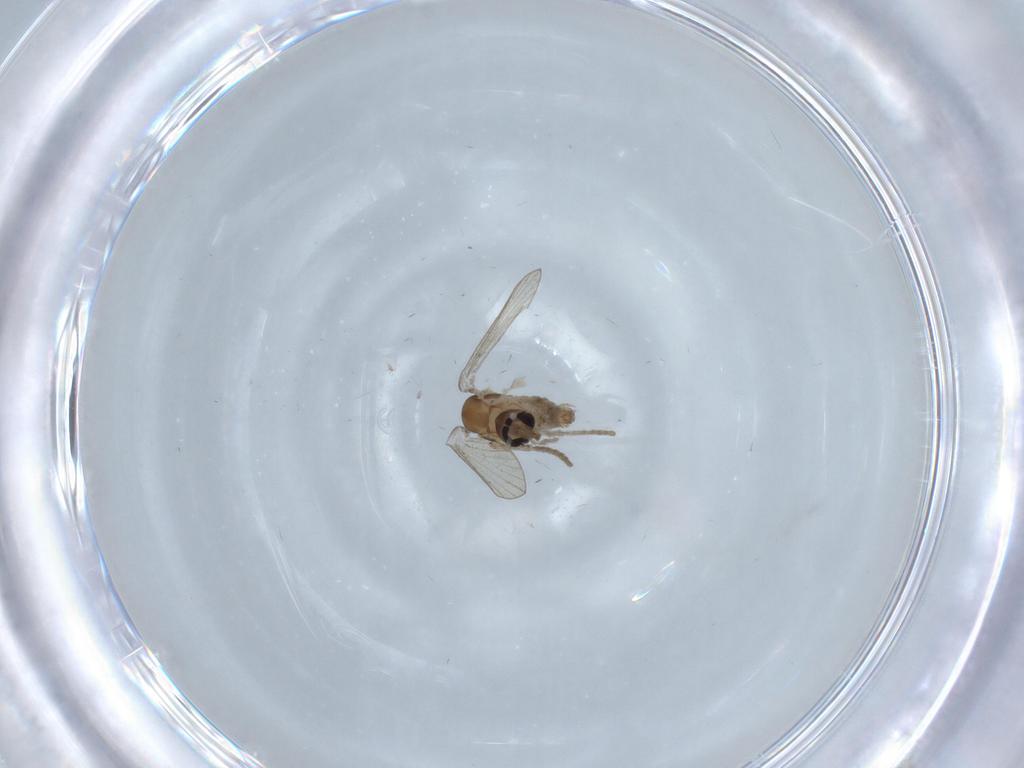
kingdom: Animalia
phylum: Arthropoda
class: Insecta
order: Diptera
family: Psychodidae
